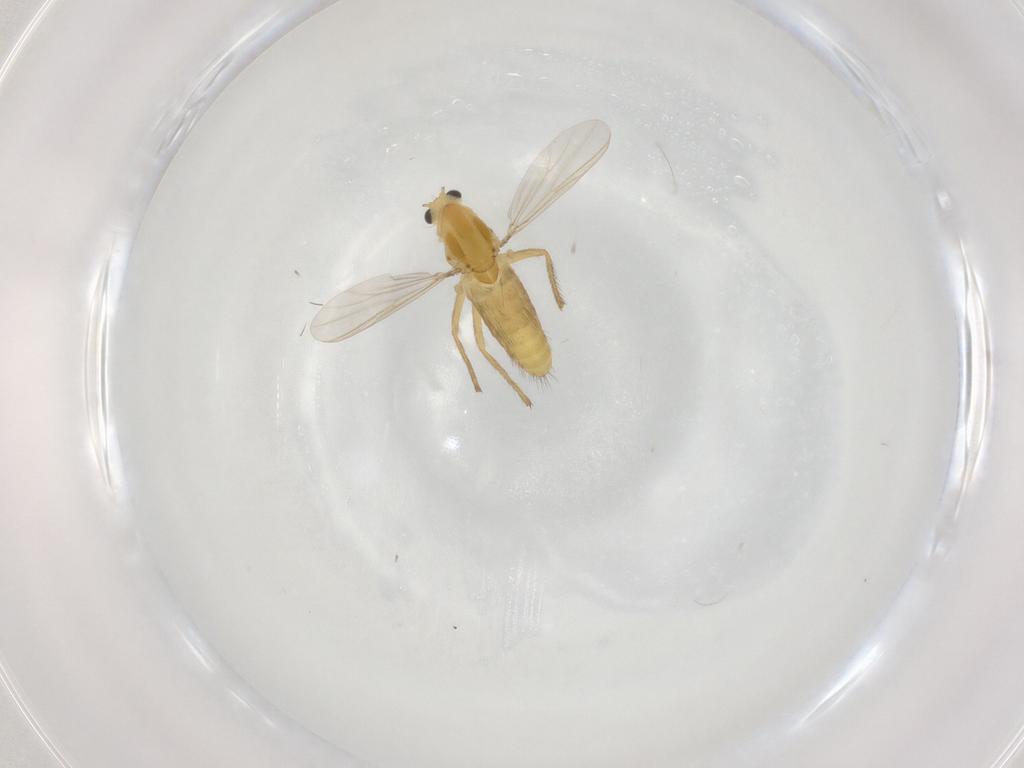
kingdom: Animalia
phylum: Arthropoda
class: Insecta
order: Diptera
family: Chironomidae
